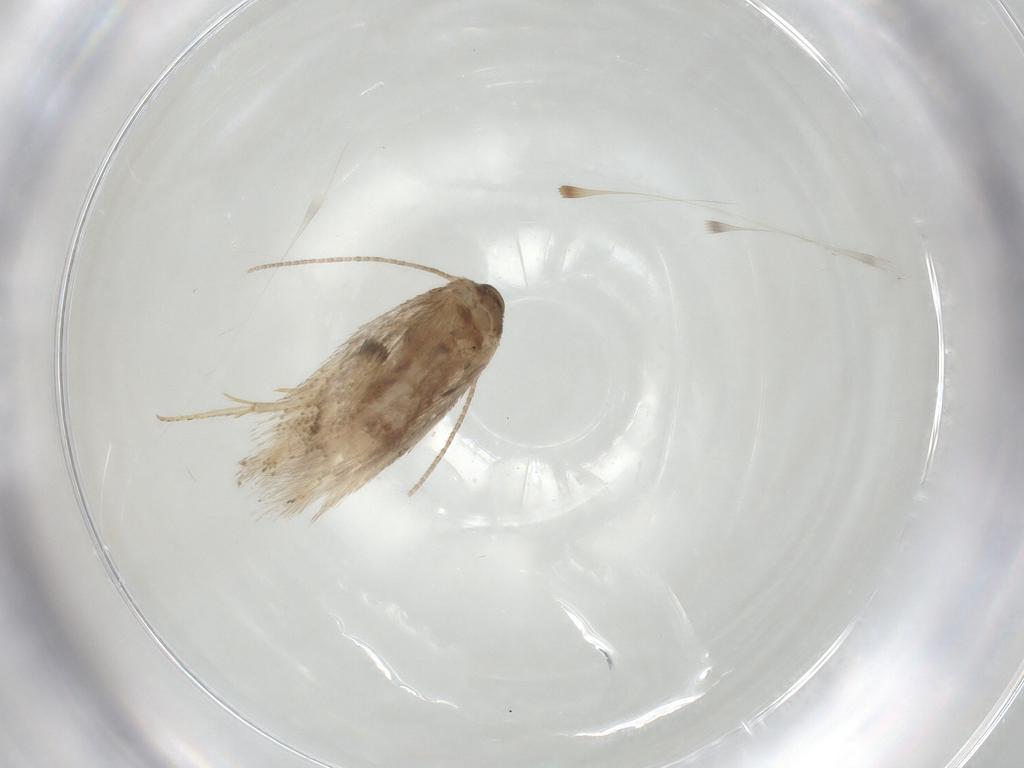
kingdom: Animalia
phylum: Arthropoda
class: Insecta
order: Lepidoptera
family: Elachistidae
